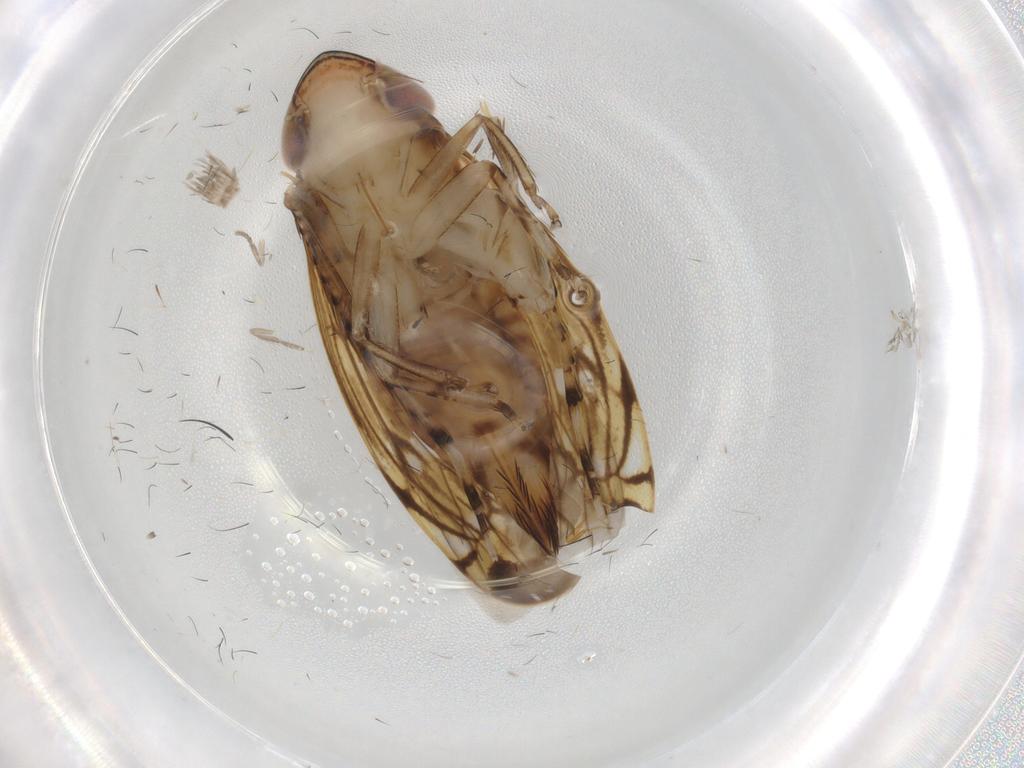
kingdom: Animalia
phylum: Arthropoda
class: Insecta
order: Hemiptera
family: Cicadellidae
